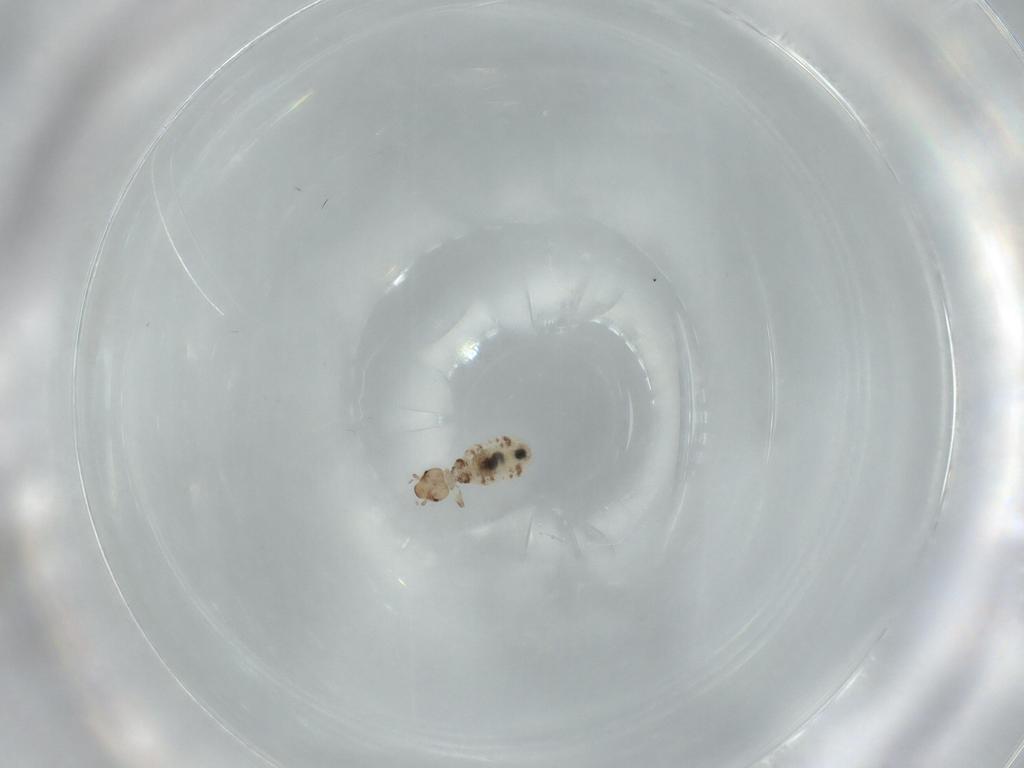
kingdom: Animalia
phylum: Arthropoda
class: Insecta
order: Psocodea
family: Liposcelididae
